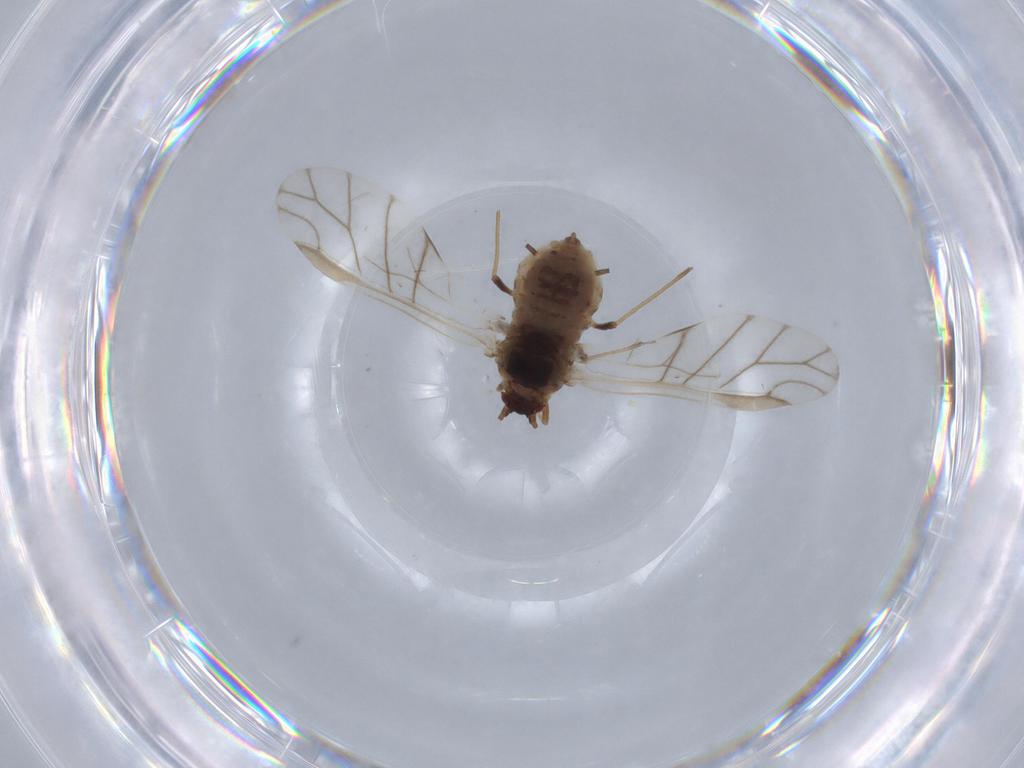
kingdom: Animalia
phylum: Arthropoda
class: Insecta
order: Hemiptera
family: Aphididae
